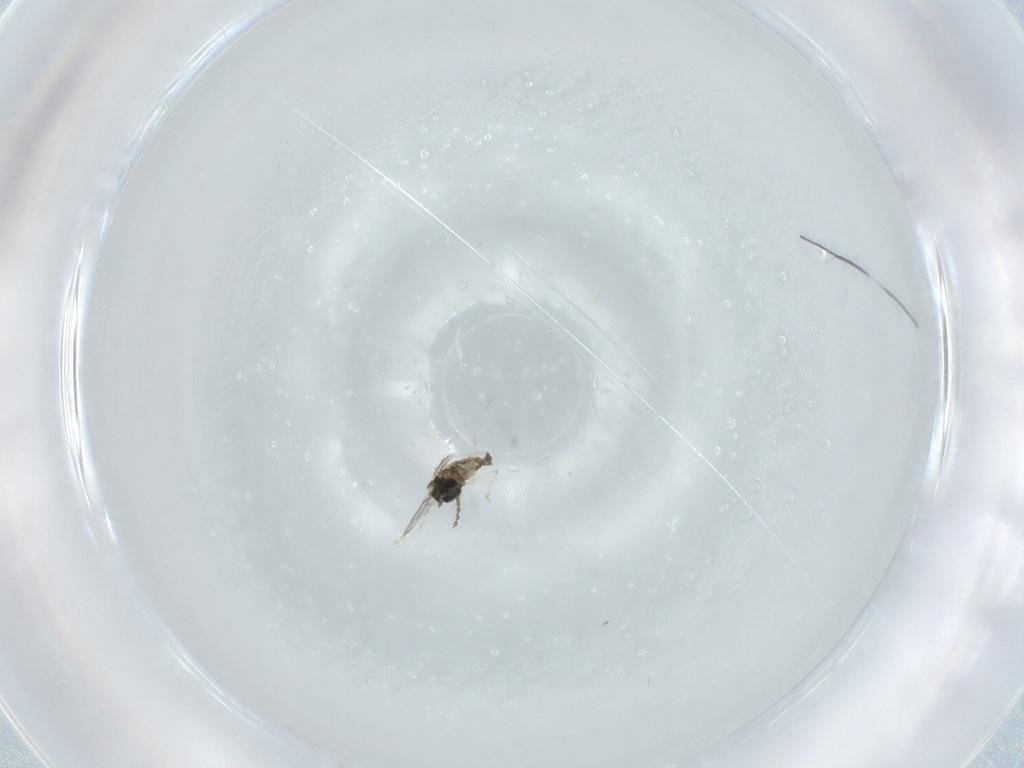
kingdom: Animalia
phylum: Arthropoda
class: Insecta
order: Diptera
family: Cecidomyiidae
